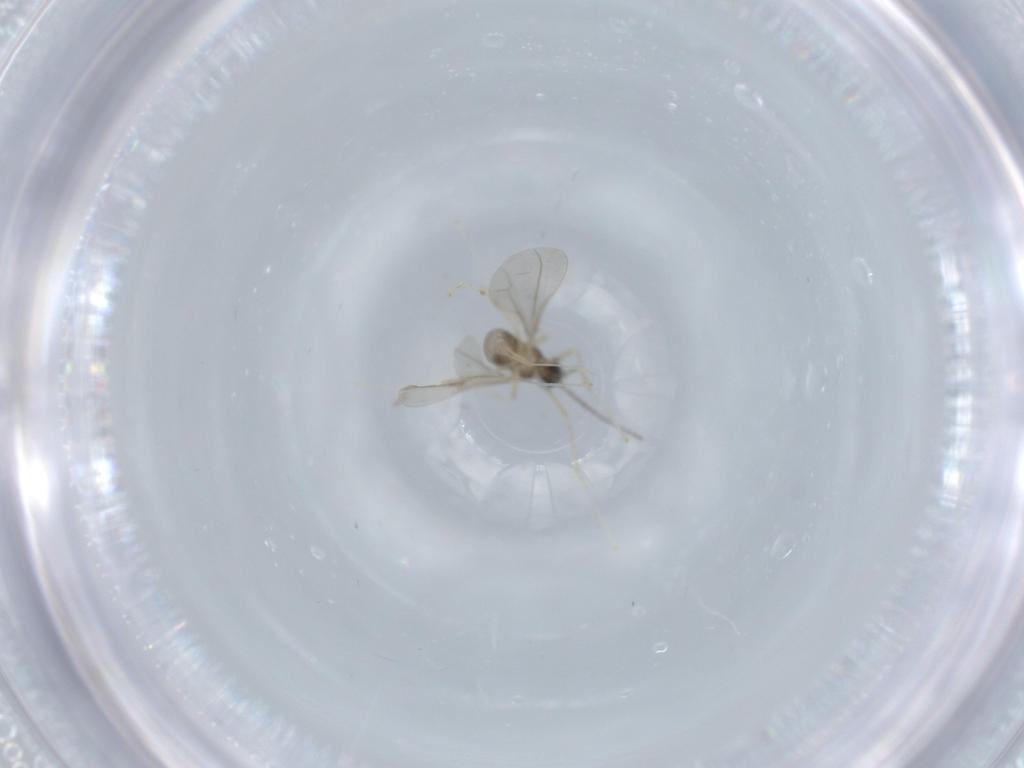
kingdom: Animalia
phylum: Arthropoda
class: Insecta
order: Diptera
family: Cecidomyiidae
